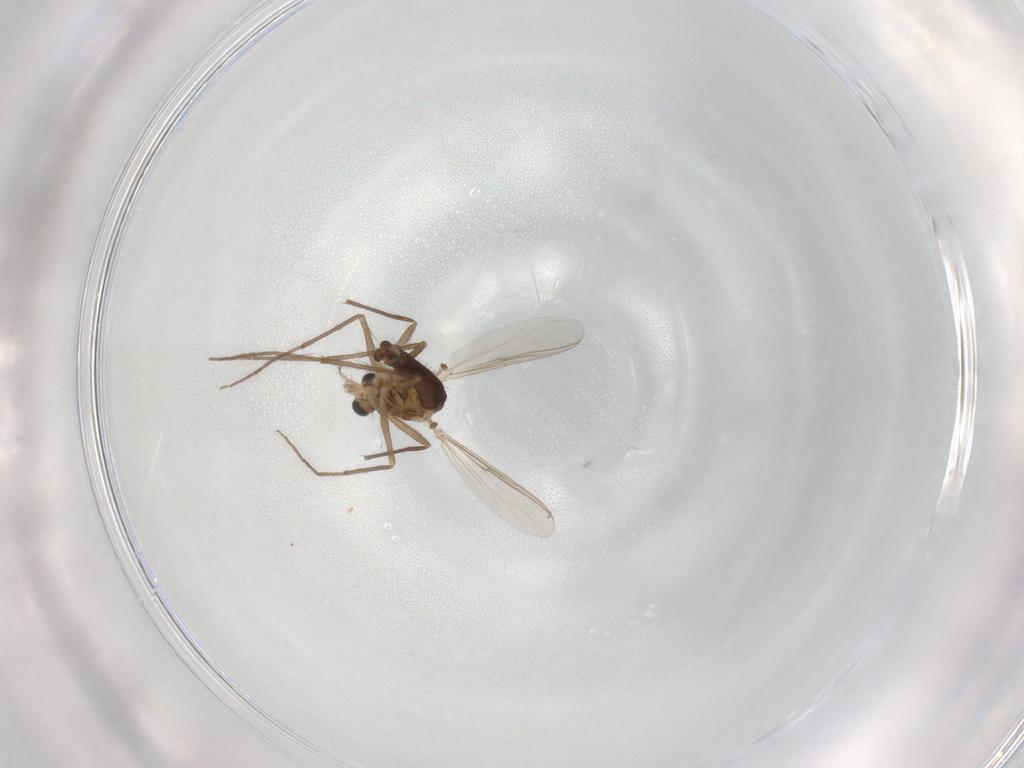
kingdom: Animalia
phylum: Arthropoda
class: Insecta
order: Diptera
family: Chironomidae
